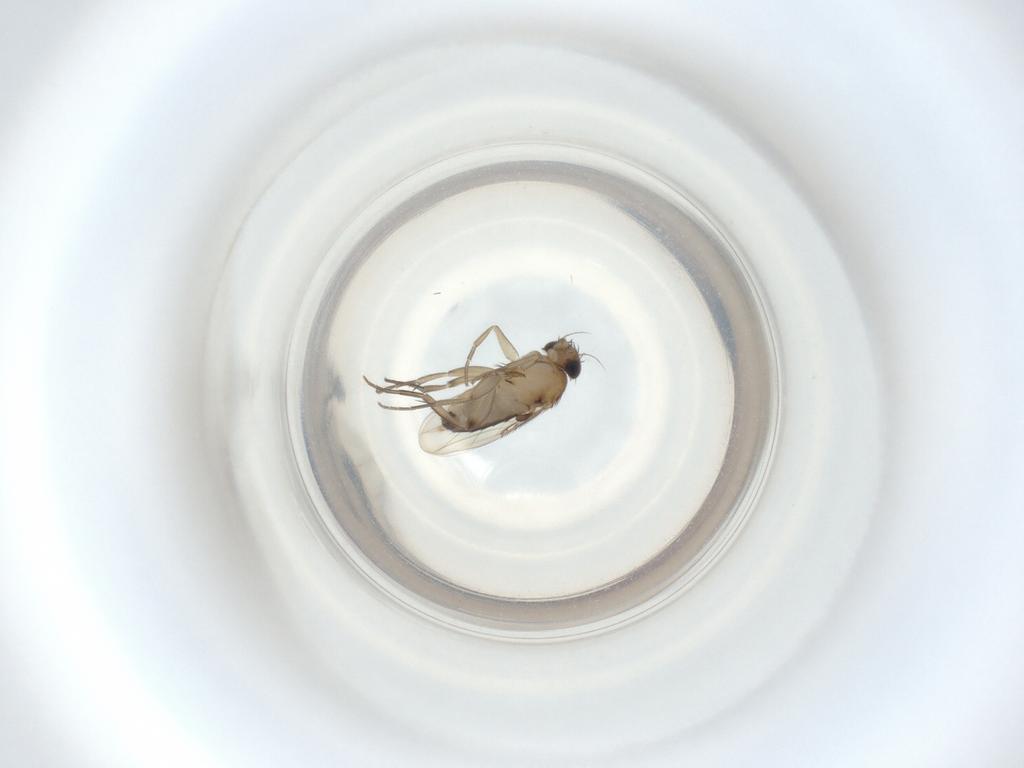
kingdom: Animalia
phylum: Arthropoda
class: Insecta
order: Diptera
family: Phoridae
